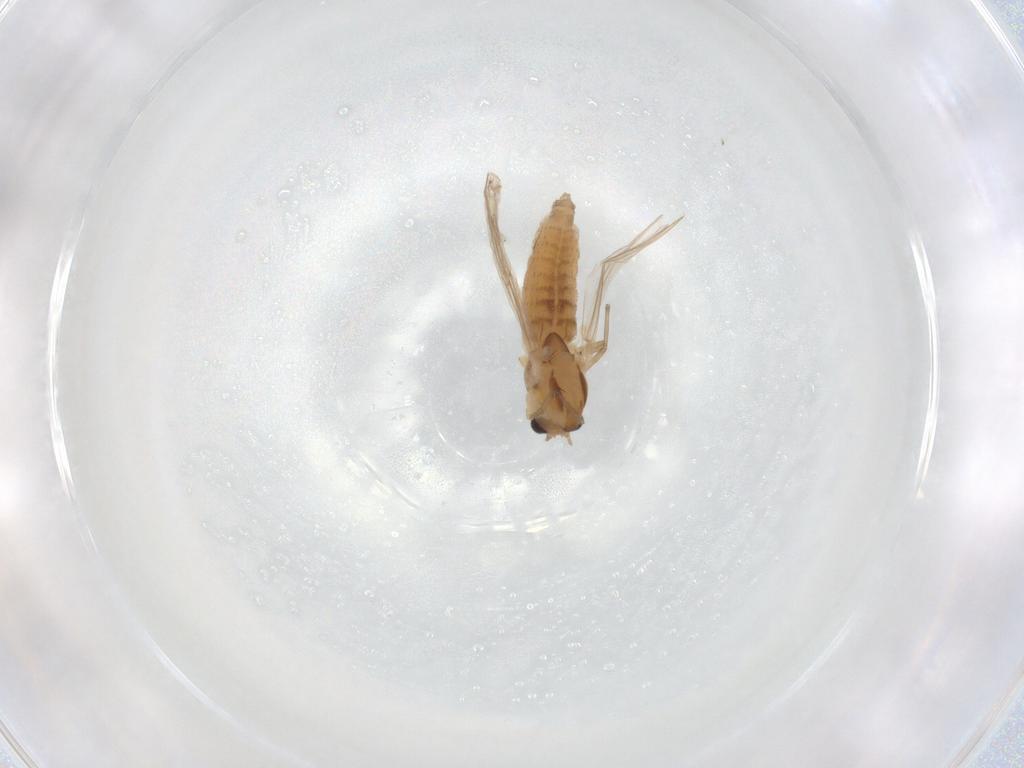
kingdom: Animalia
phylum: Arthropoda
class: Insecta
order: Diptera
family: Chironomidae
